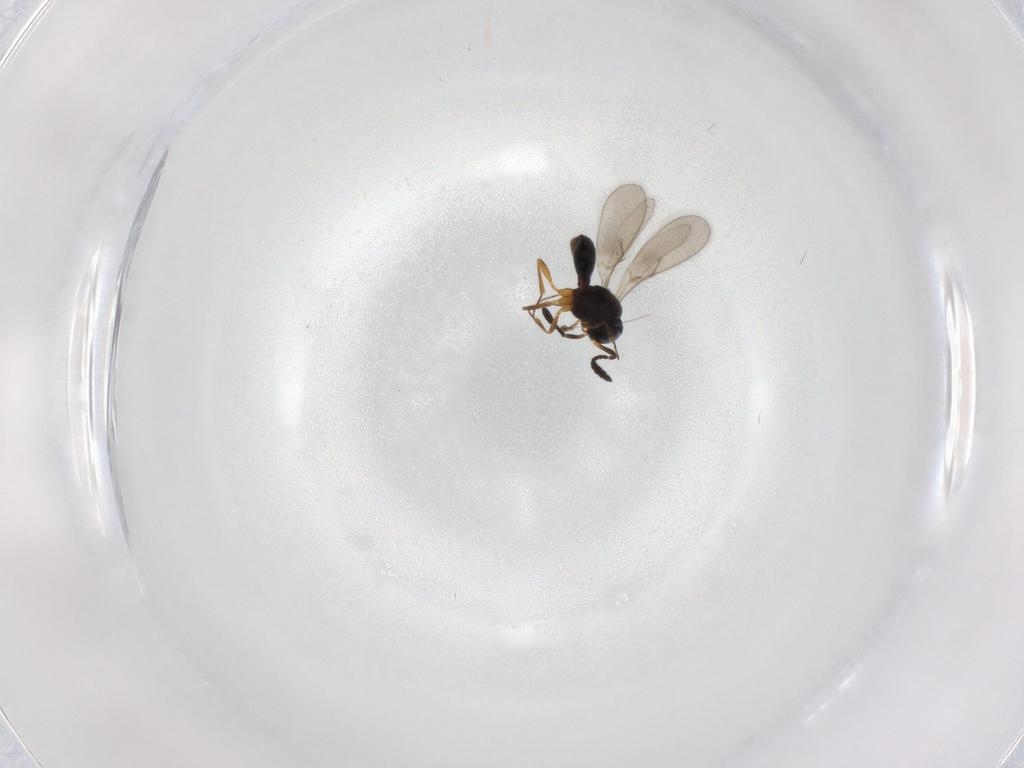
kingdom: Animalia
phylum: Arthropoda
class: Insecta
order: Hymenoptera
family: Scelionidae
